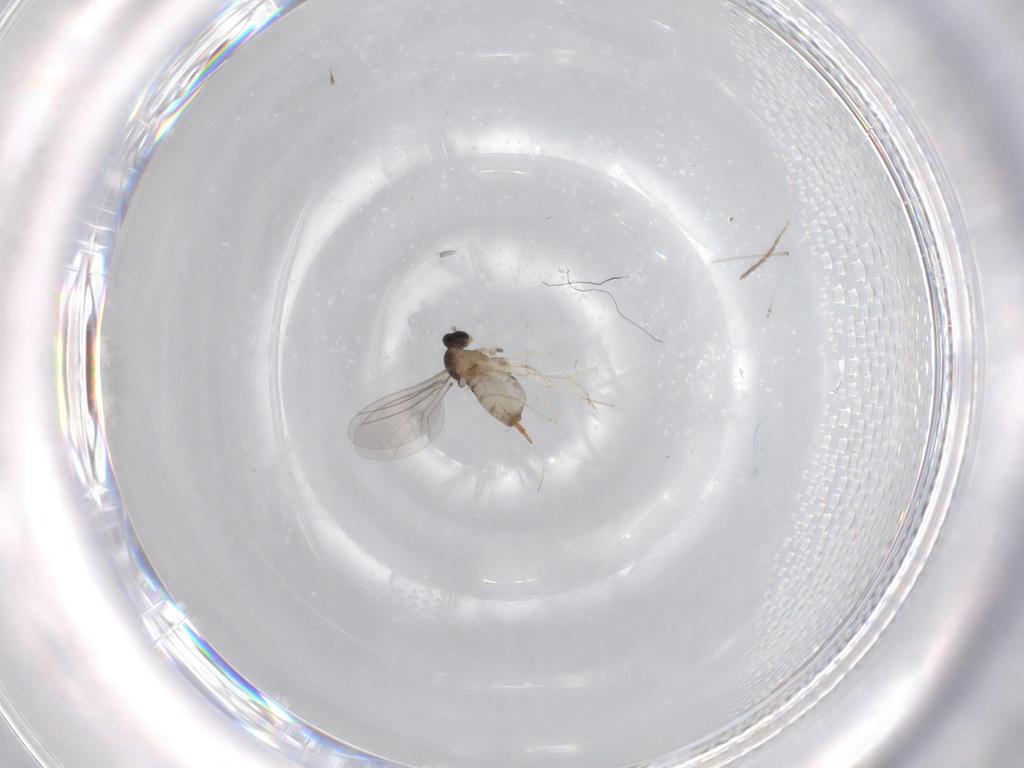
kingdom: Animalia
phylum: Arthropoda
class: Insecta
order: Diptera
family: Cecidomyiidae
